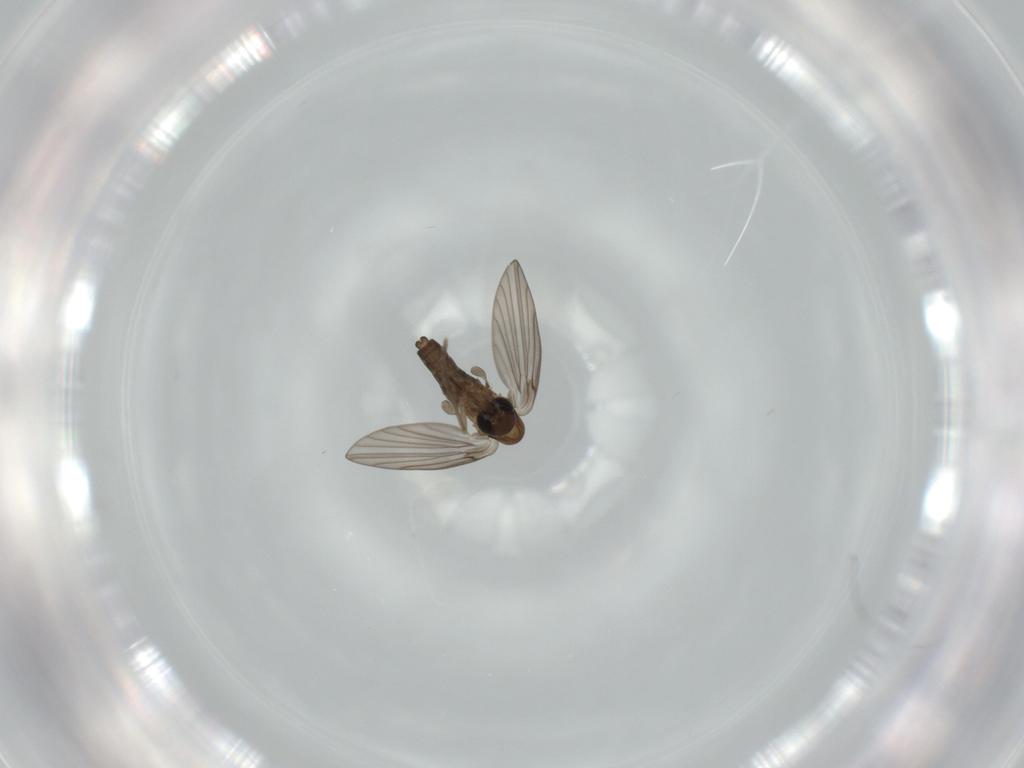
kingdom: Animalia
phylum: Arthropoda
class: Insecta
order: Diptera
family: Psychodidae
